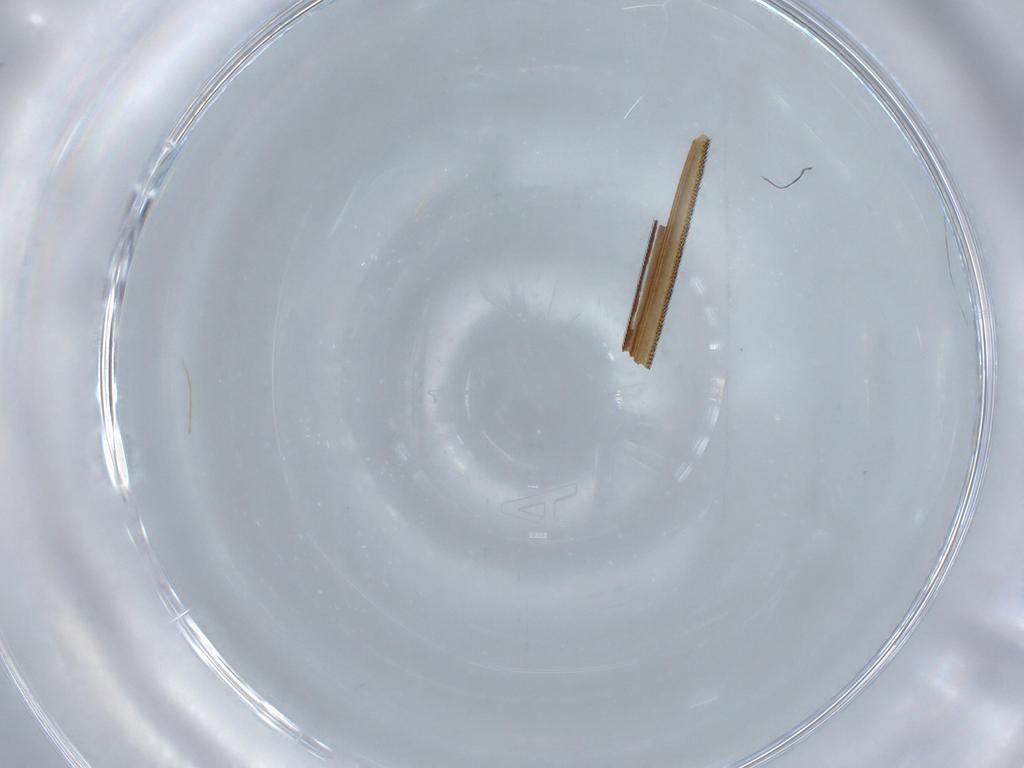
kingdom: Animalia
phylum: Arthropoda
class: Insecta
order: Diptera
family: Tabanidae
